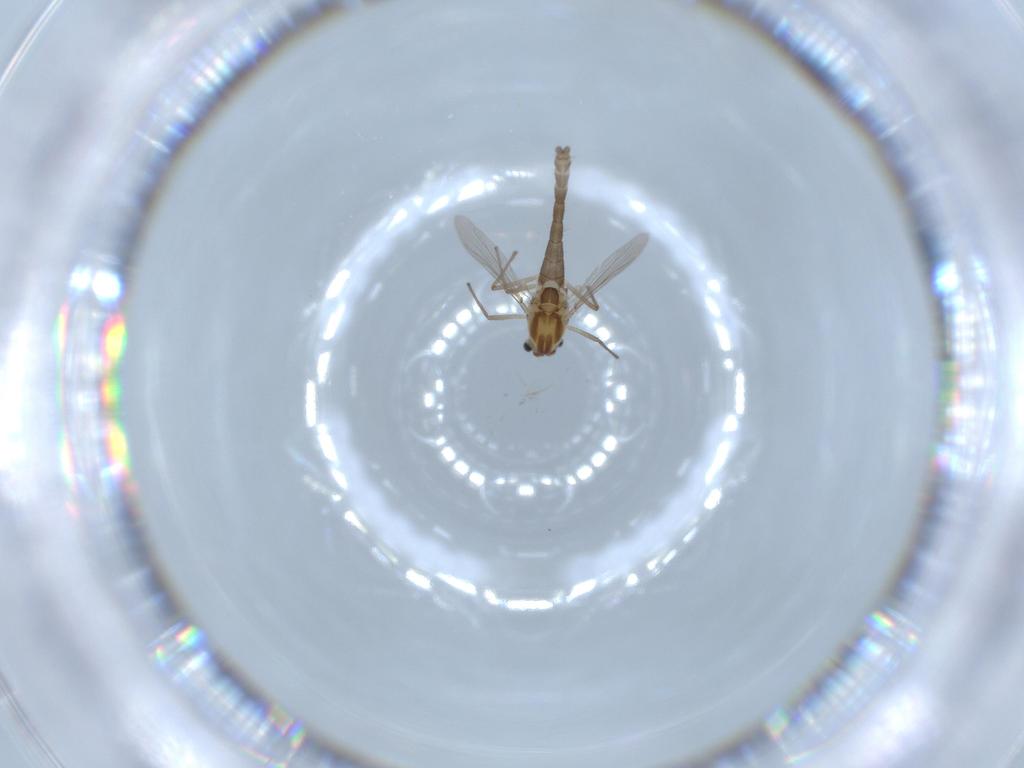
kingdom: Animalia
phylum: Arthropoda
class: Insecta
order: Diptera
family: Chironomidae
